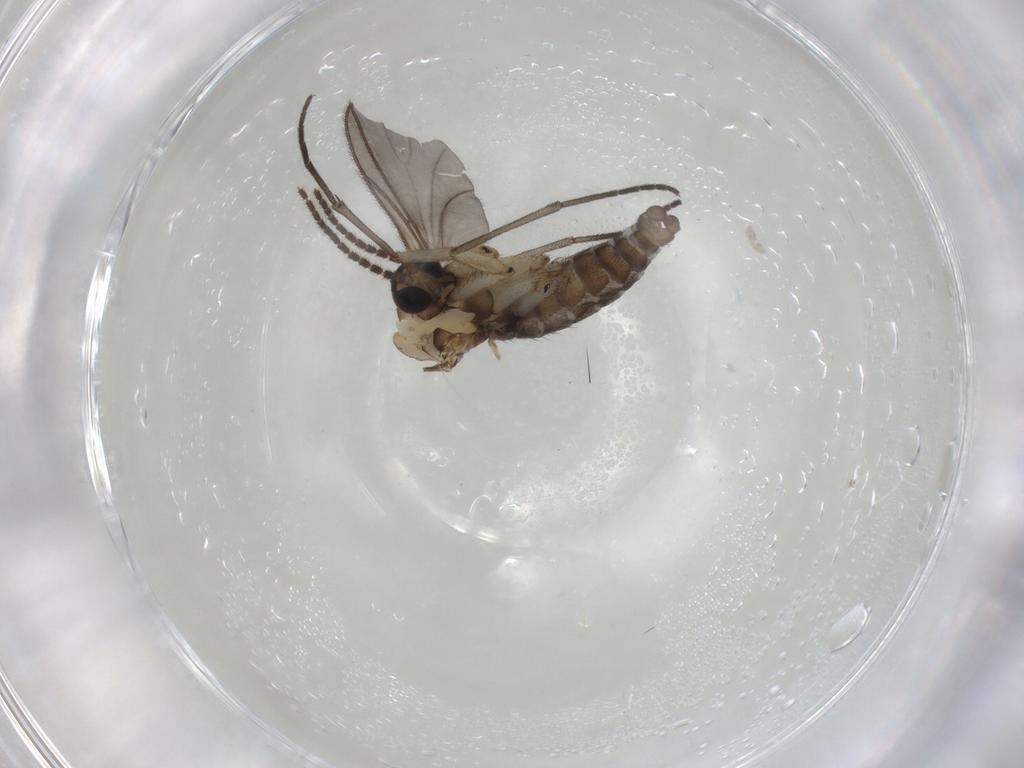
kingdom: Animalia
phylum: Arthropoda
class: Insecta
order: Diptera
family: Sciaridae
